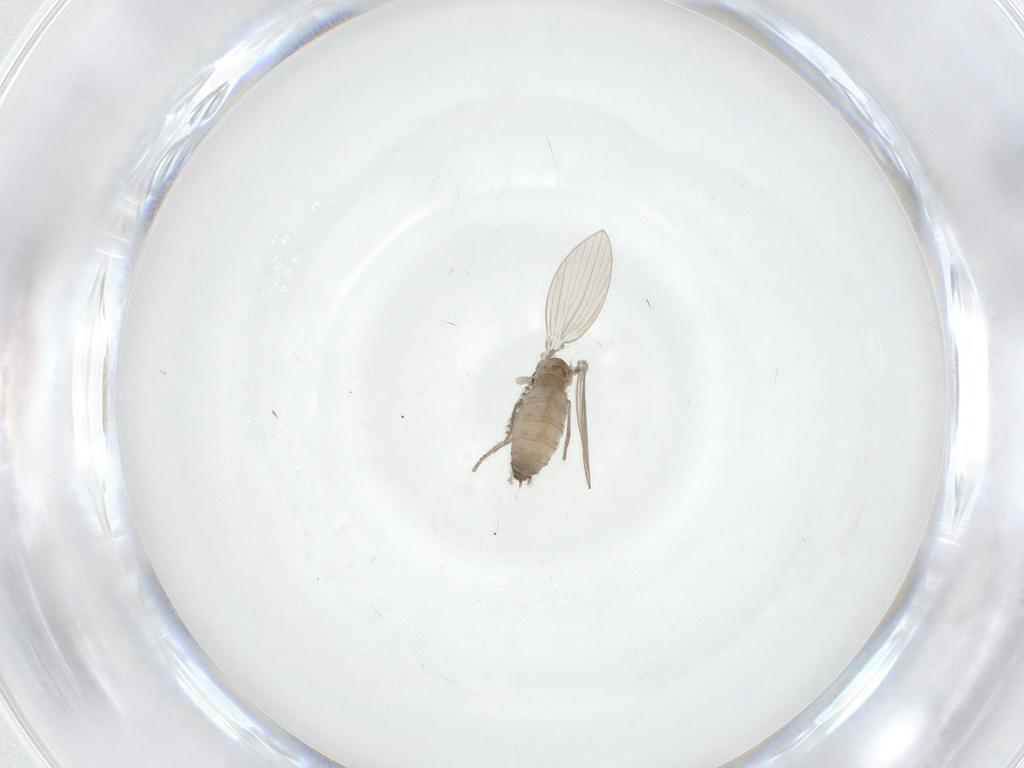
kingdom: Animalia
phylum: Arthropoda
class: Insecta
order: Diptera
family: Psychodidae
